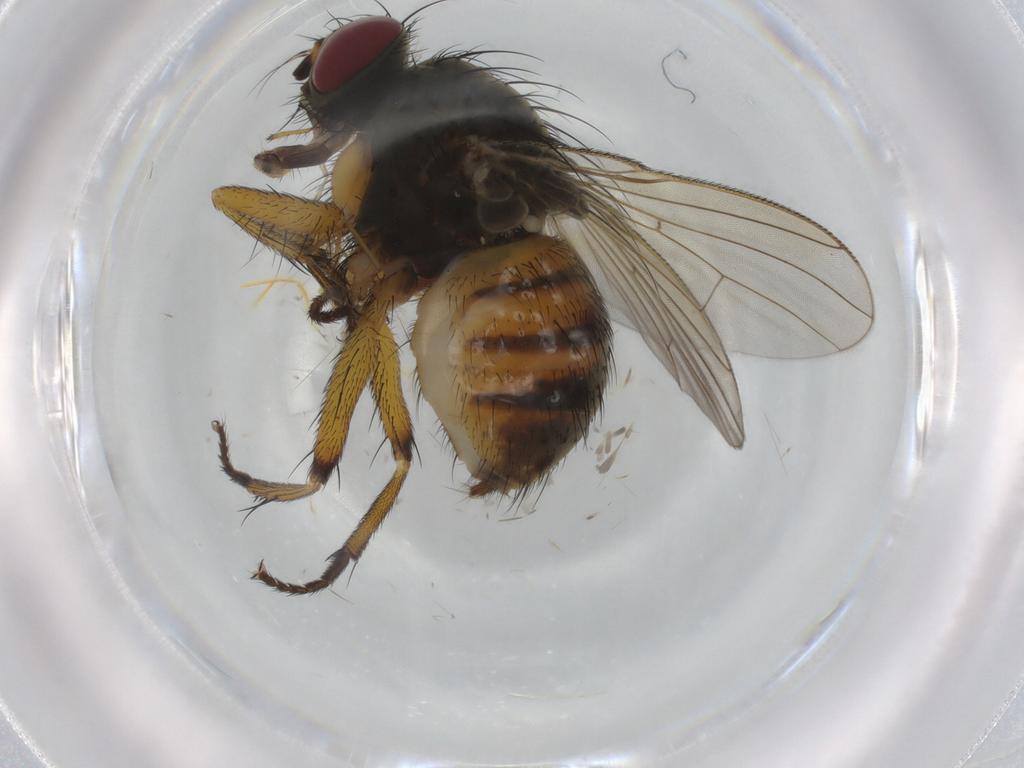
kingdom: Animalia
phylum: Arthropoda
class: Insecta
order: Diptera
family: Muscidae
